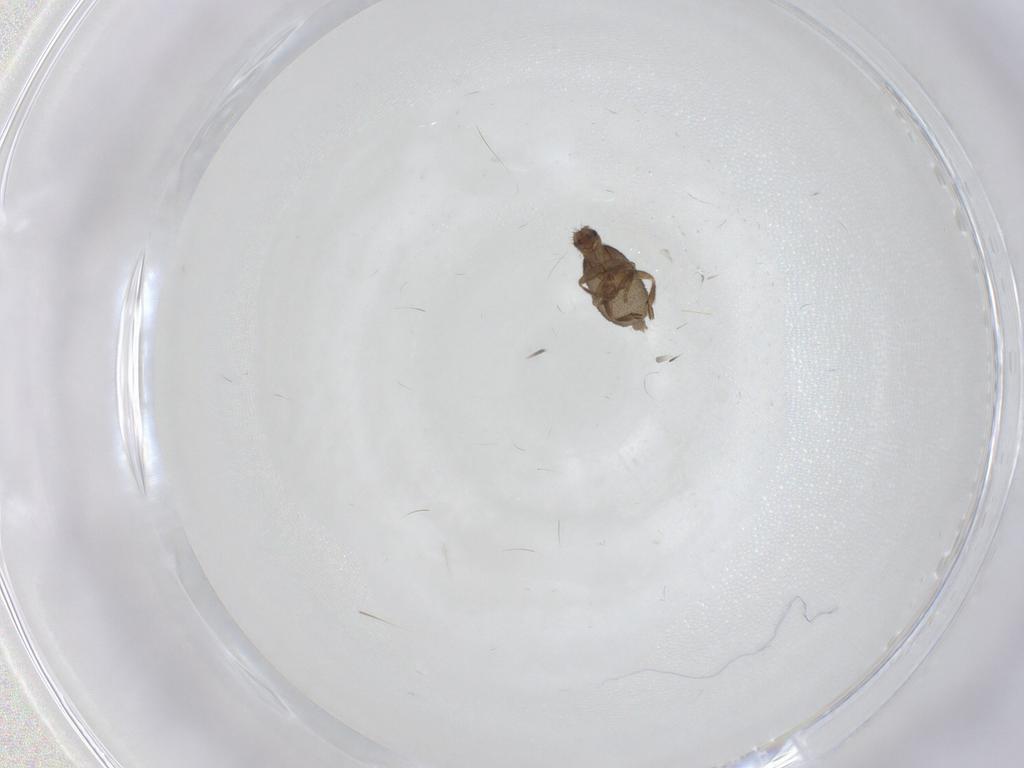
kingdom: Animalia
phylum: Arthropoda
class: Insecta
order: Diptera
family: Phoridae
